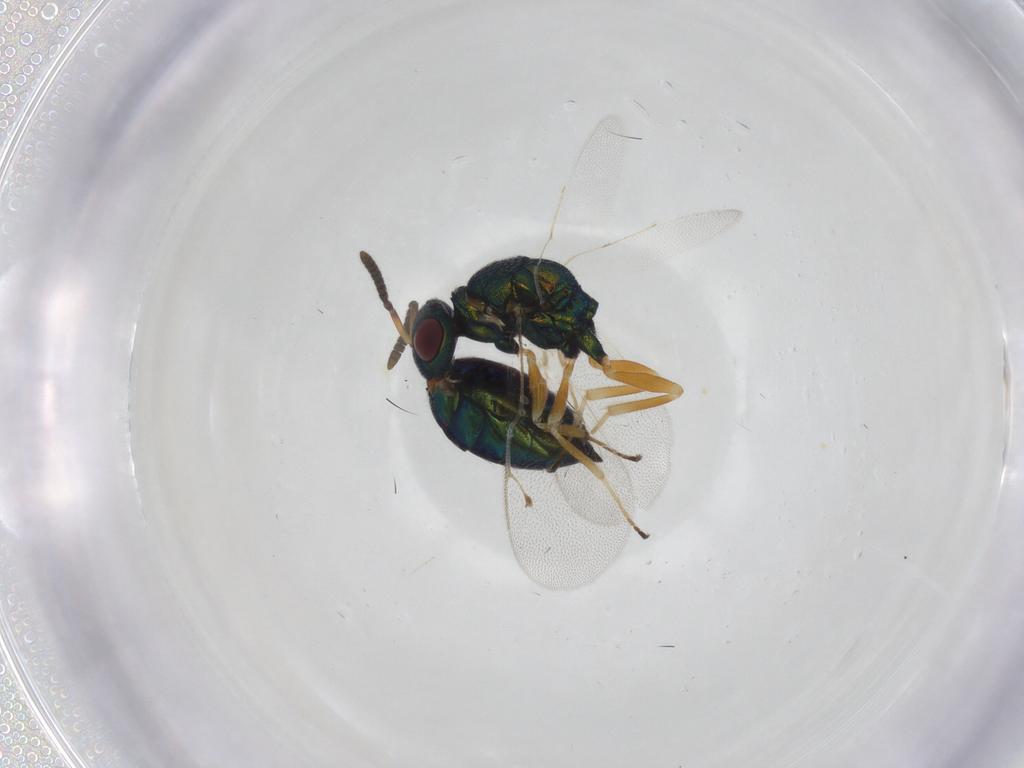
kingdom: Animalia
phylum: Arthropoda
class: Insecta
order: Hymenoptera
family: Pteromalidae
